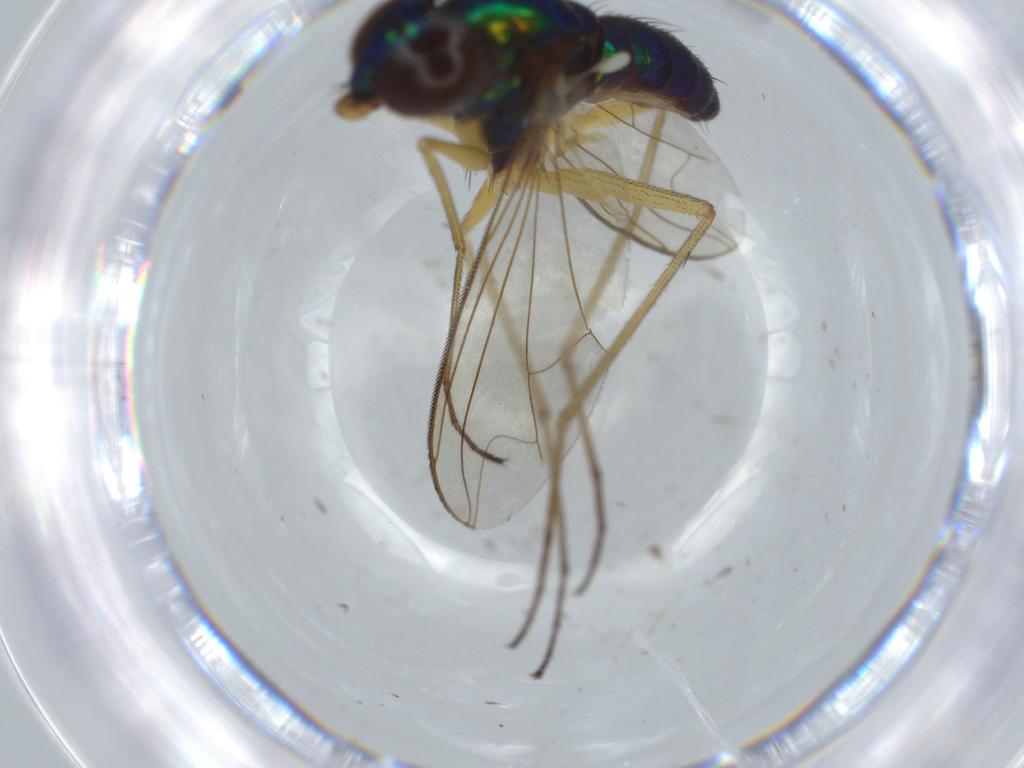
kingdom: Animalia
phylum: Arthropoda
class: Insecta
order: Diptera
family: Dolichopodidae
